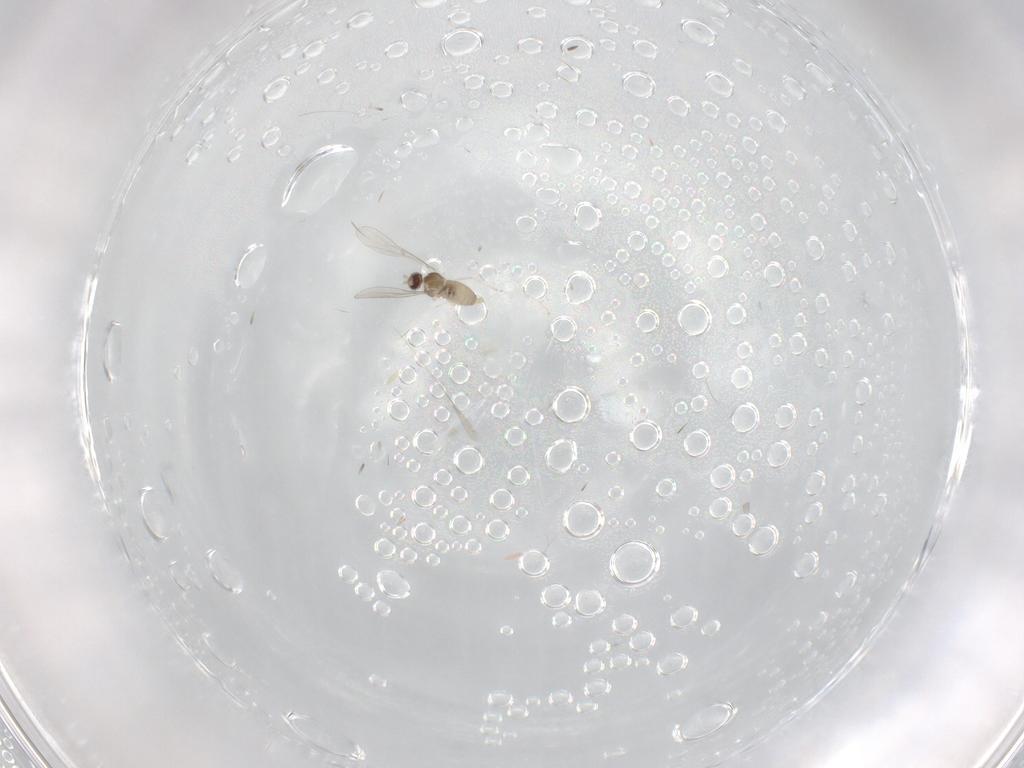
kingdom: Animalia
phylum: Arthropoda
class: Insecta
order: Diptera
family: Cecidomyiidae
